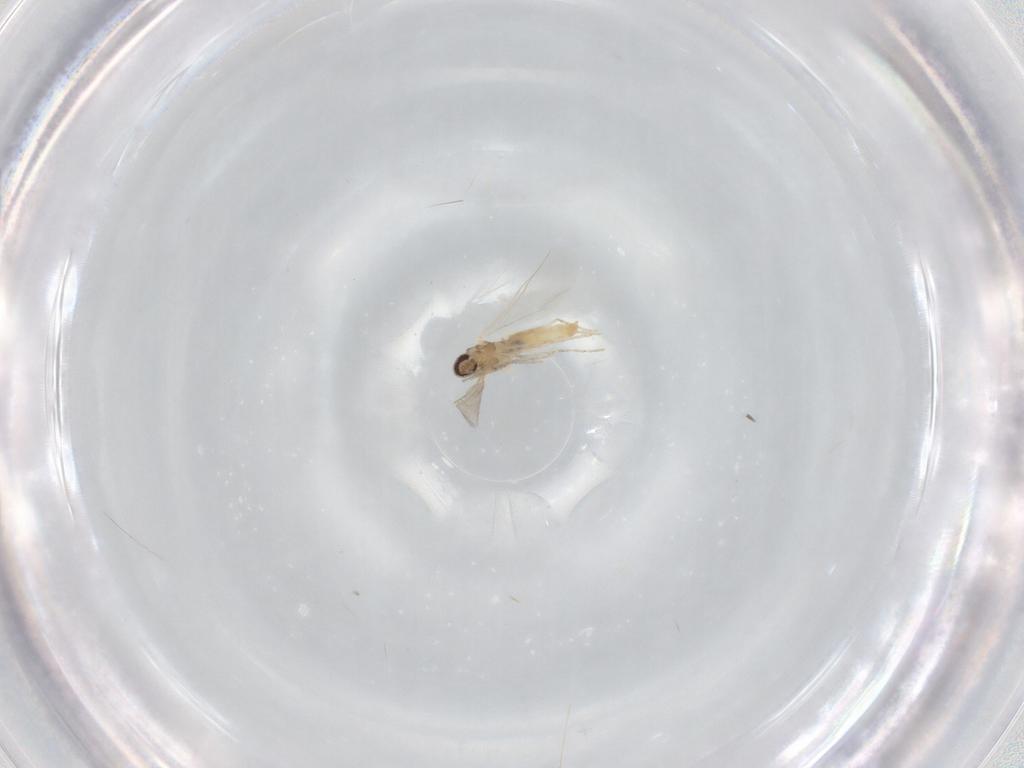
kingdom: Animalia
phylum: Arthropoda
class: Insecta
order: Diptera
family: Cecidomyiidae
